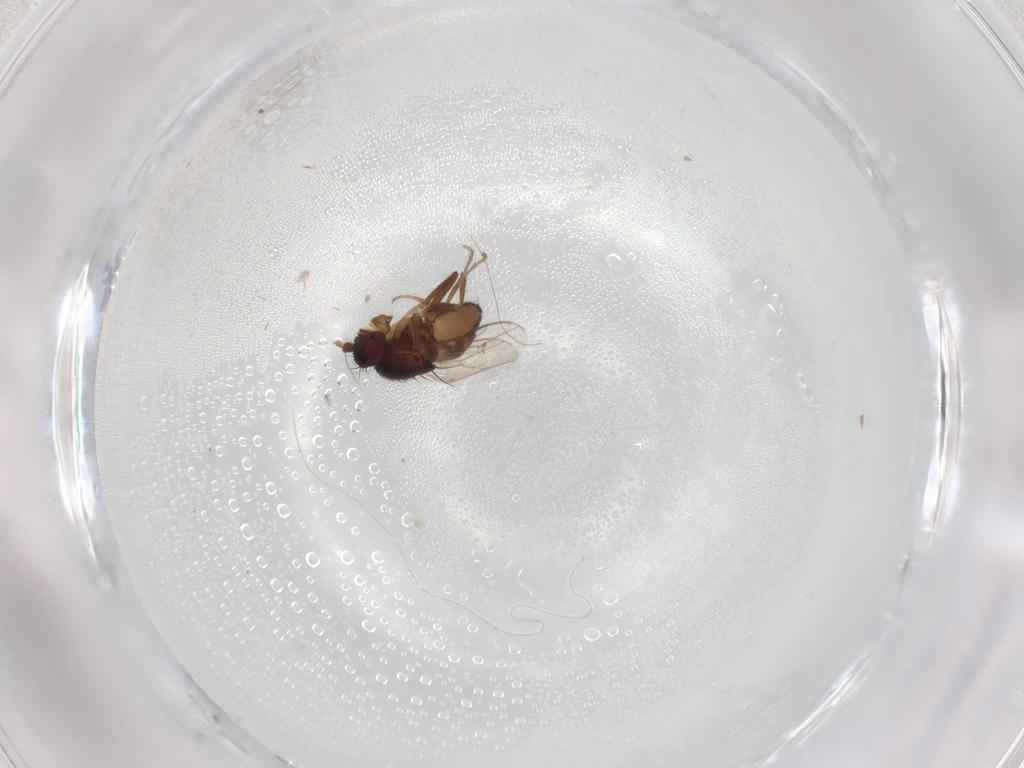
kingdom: Animalia
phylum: Arthropoda
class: Insecta
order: Diptera
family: Ceratopogonidae
